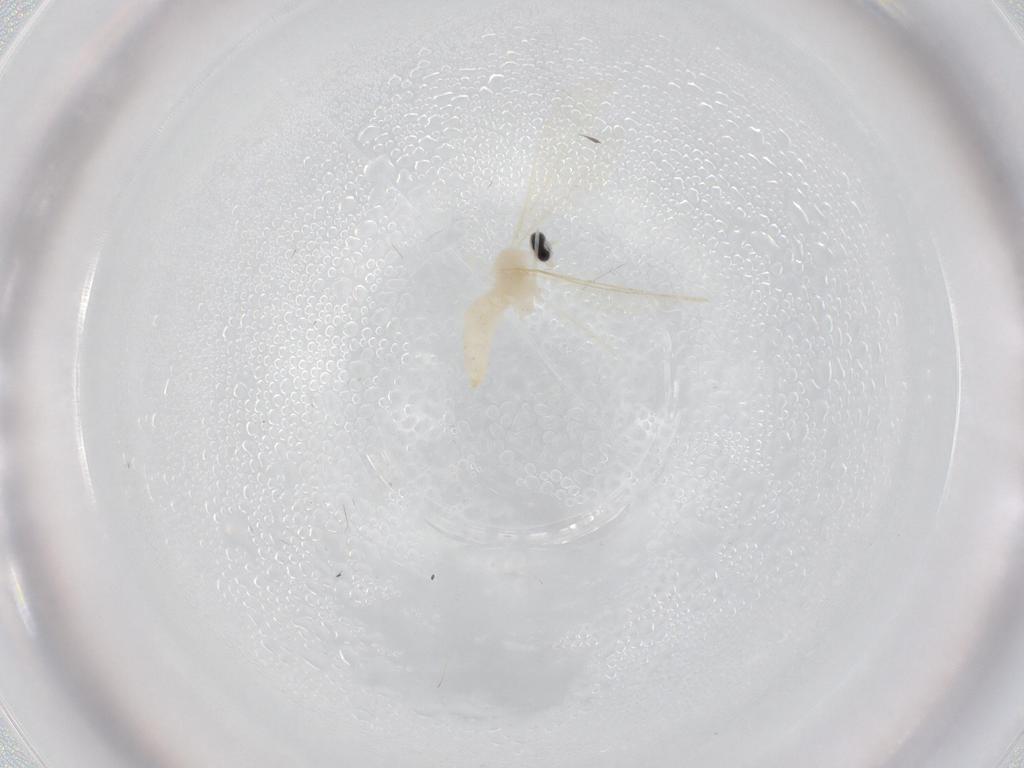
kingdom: Animalia
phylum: Arthropoda
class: Insecta
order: Diptera
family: Cecidomyiidae
